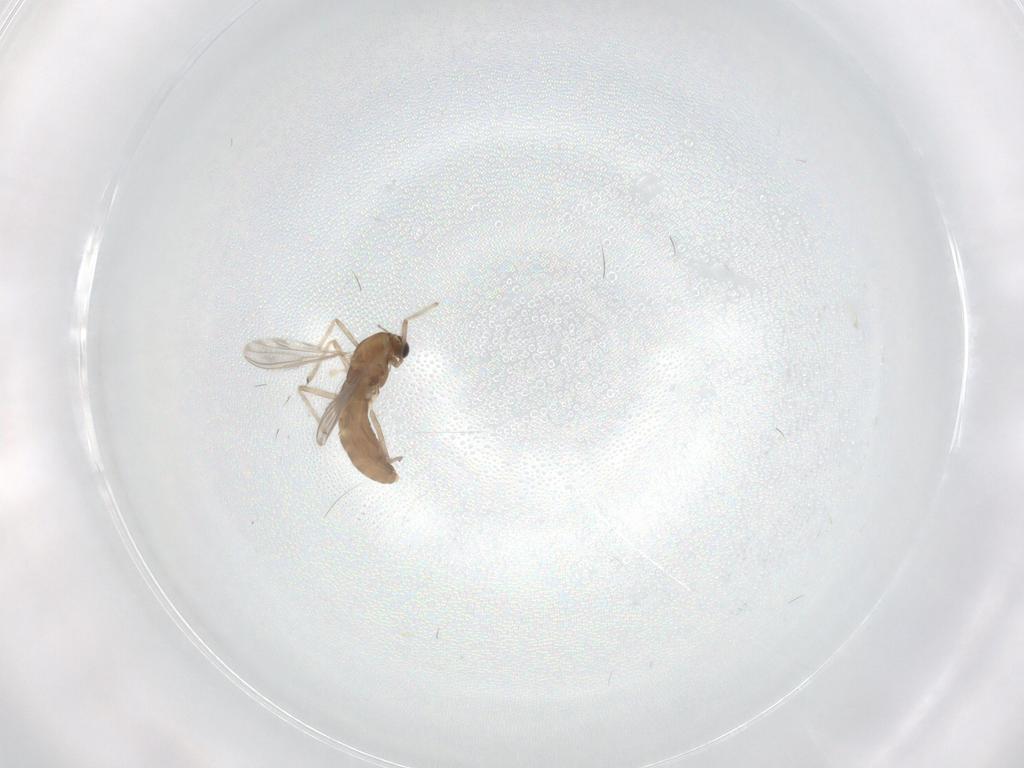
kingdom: Animalia
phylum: Arthropoda
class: Insecta
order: Diptera
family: Chironomidae
